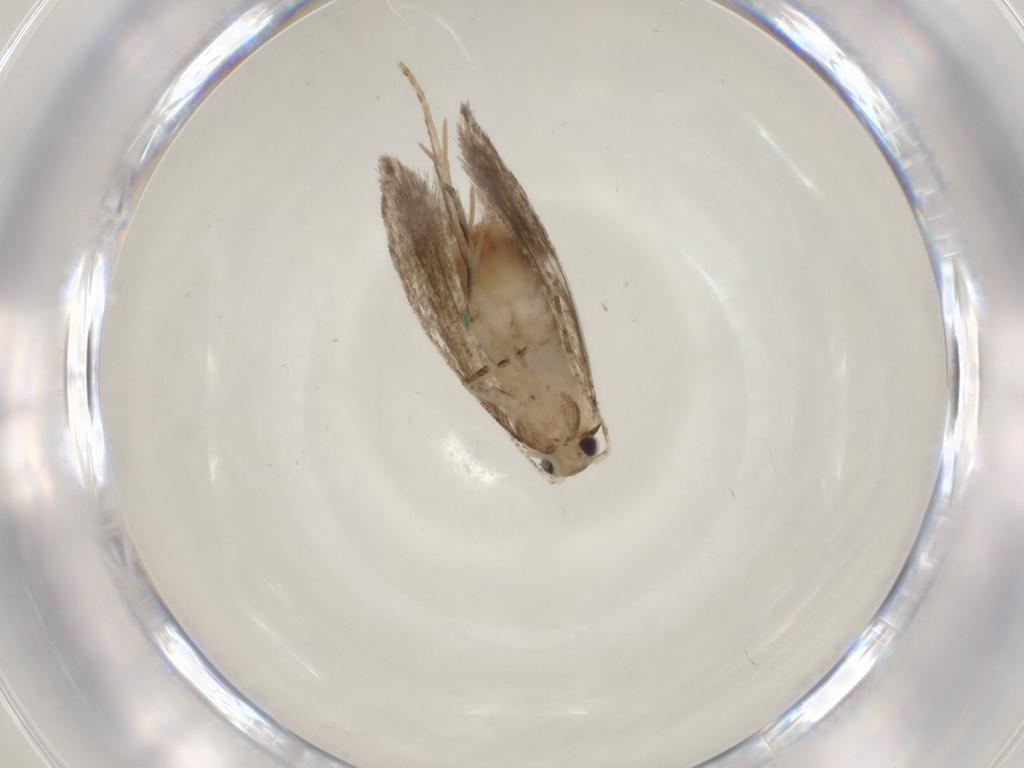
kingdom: Animalia
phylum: Arthropoda
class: Insecta
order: Lepidoptera
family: Tineidae
